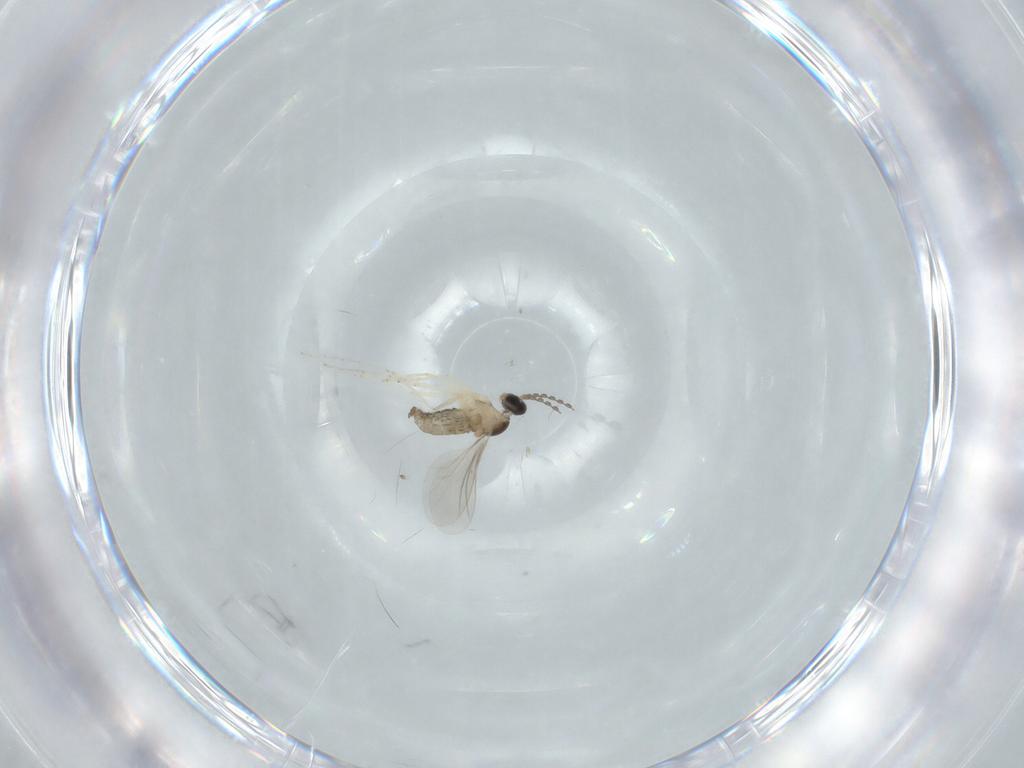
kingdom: Animalia
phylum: Arthropoda
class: Insecta
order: Diptera
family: Cecidomyiidae
